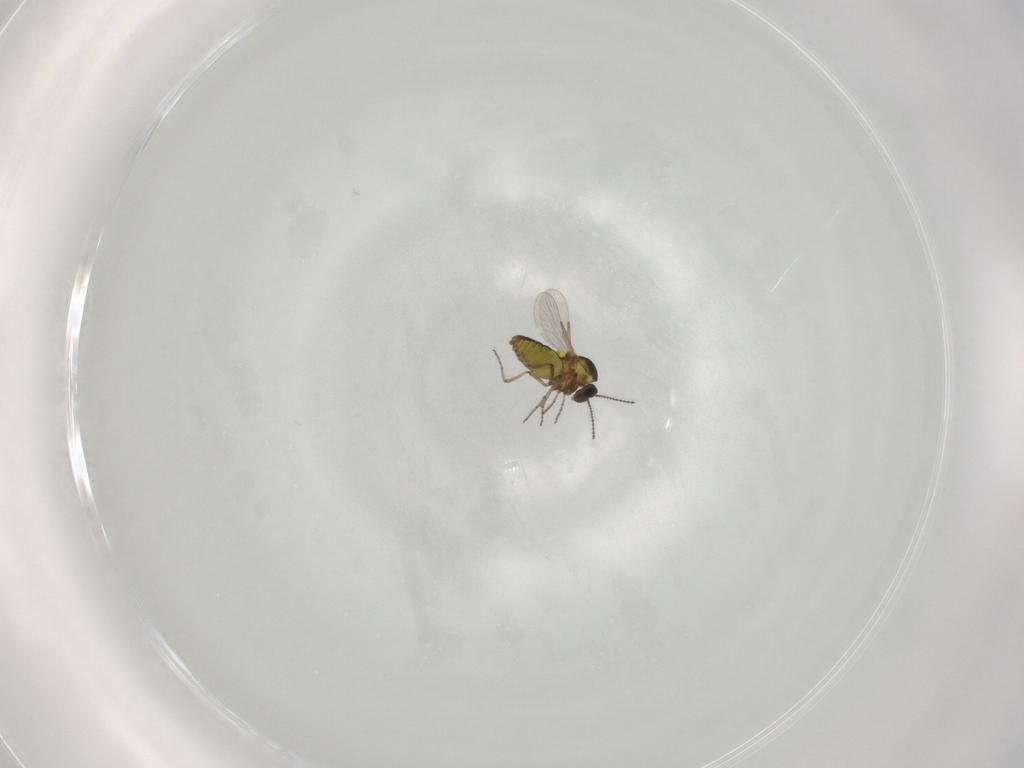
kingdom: Animalia
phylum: Arthropoda
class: Insecta
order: Diptera
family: Ceratopogonidae
